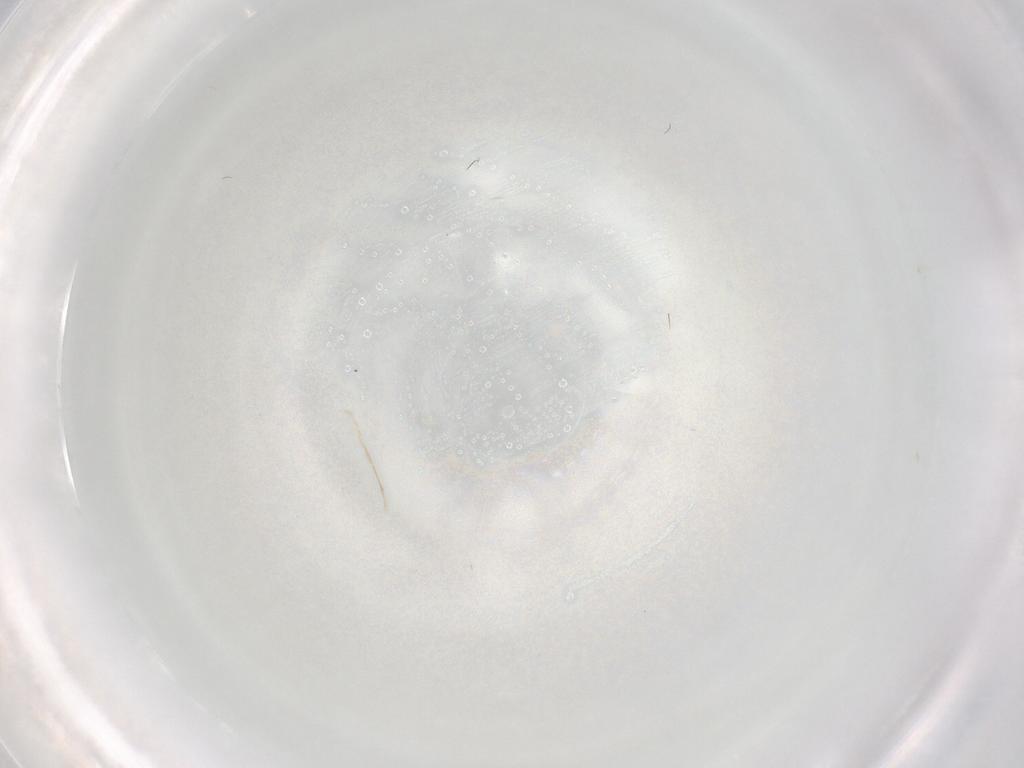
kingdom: Animalia
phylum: Arthropoda
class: Insecta
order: Diptera
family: Cecidomyiidae
